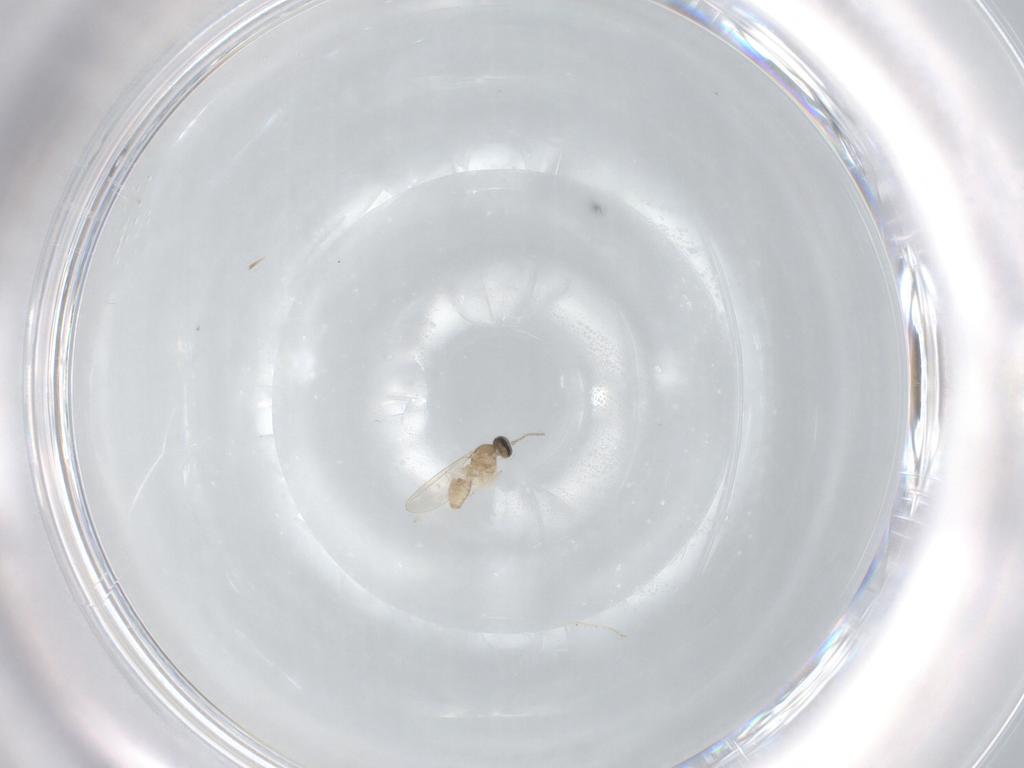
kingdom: Animalia
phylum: Arthropoda
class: Insecta
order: Diptera
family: Cecidomyiidae
